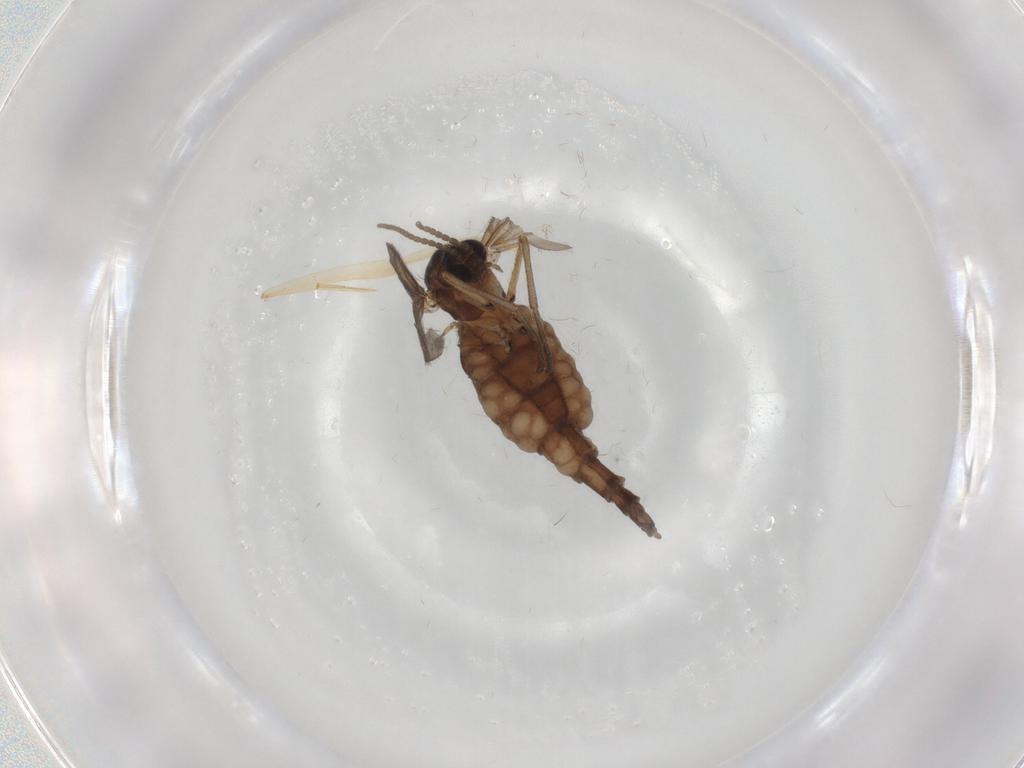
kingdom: Animalia
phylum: Arthropoda
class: Insecta
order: Diptera
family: Sciaridae
